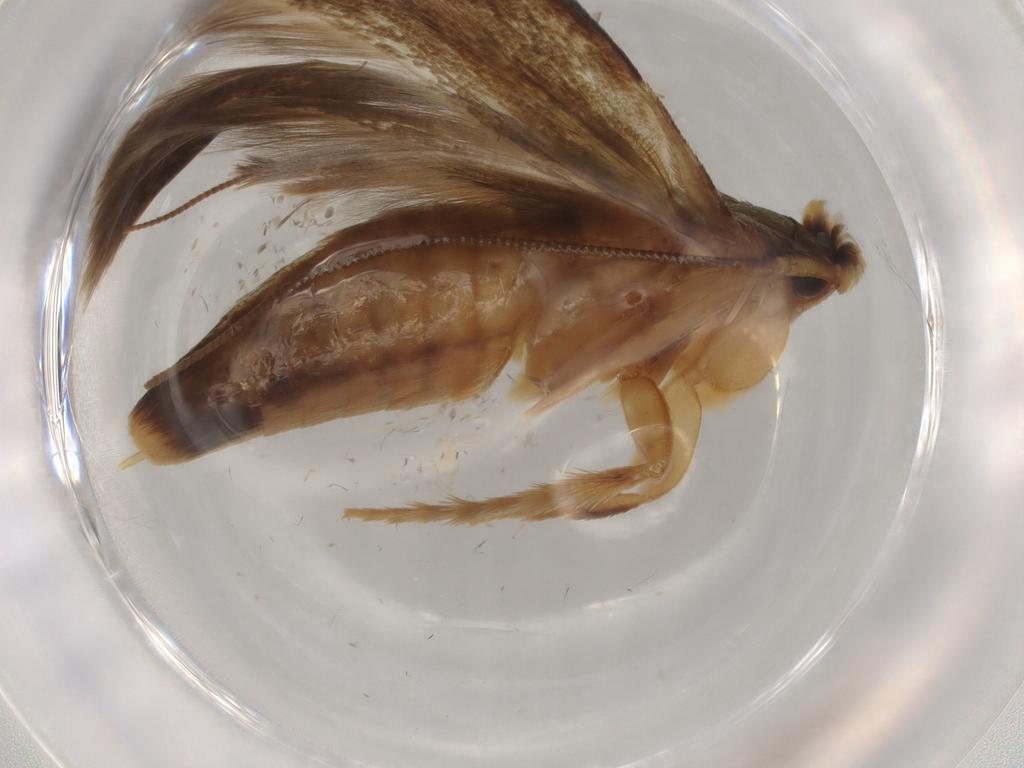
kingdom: Animalia
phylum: Arthropoda
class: Insecta
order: Lepidoptera
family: Tineidae
